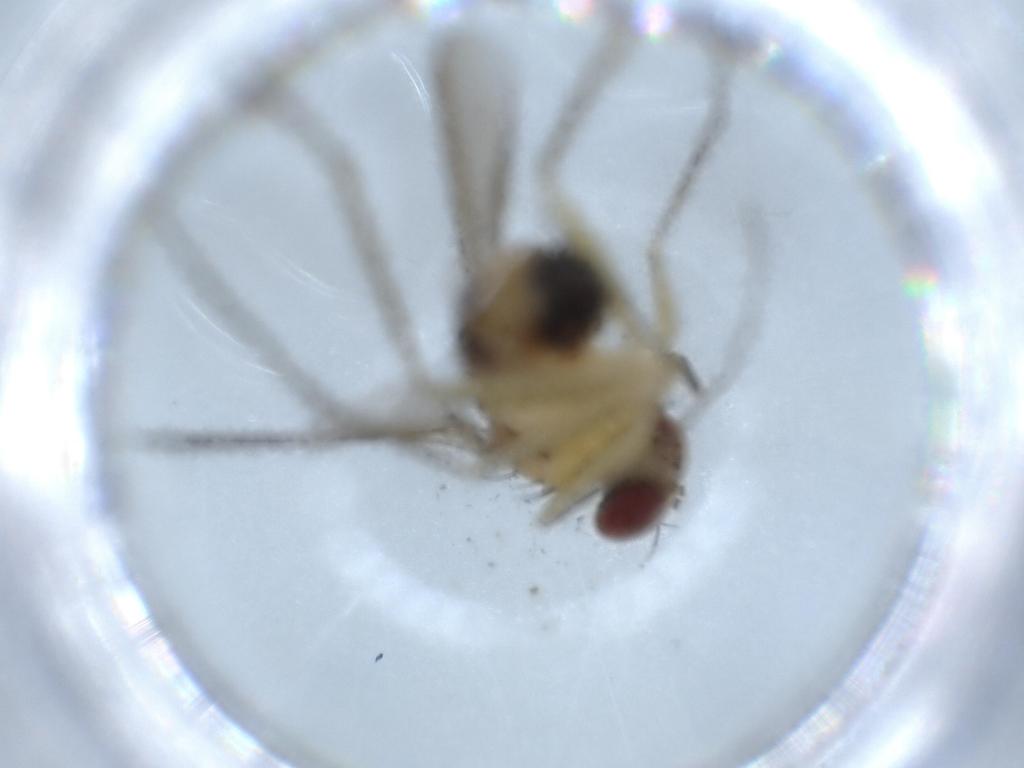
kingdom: Animalia
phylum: Arthropoda
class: Insecta
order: Diptera
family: Dolichopodidae
